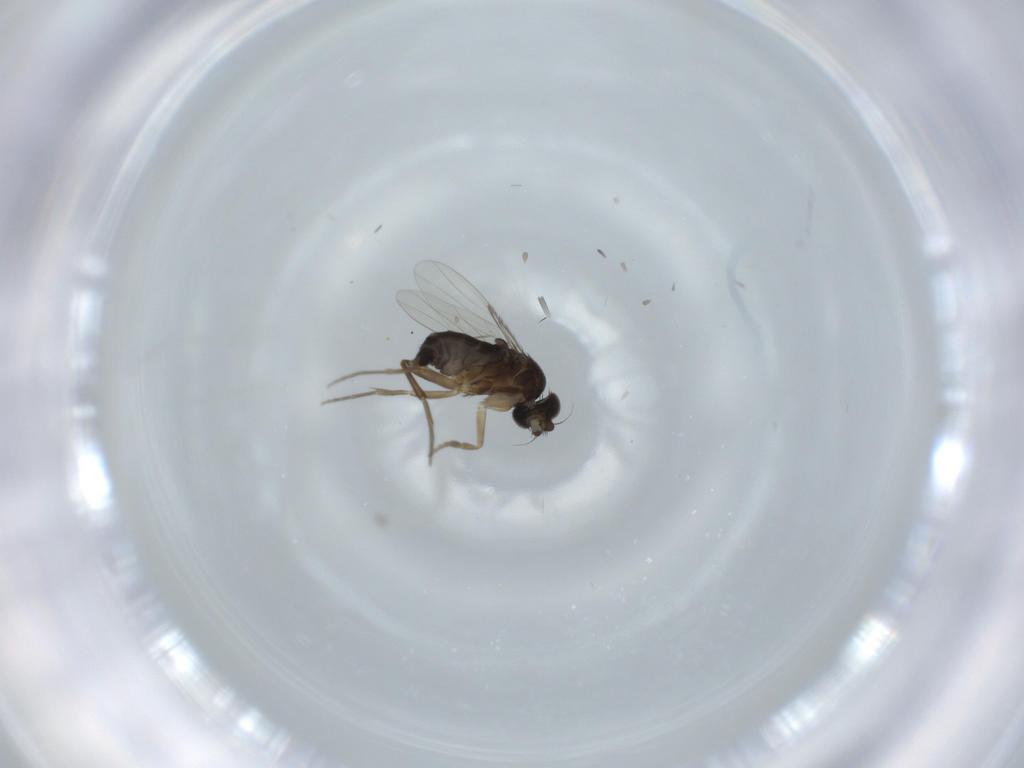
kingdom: Animalia
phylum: Arthropoda
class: Insecta
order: Diptera
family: Phoridae
